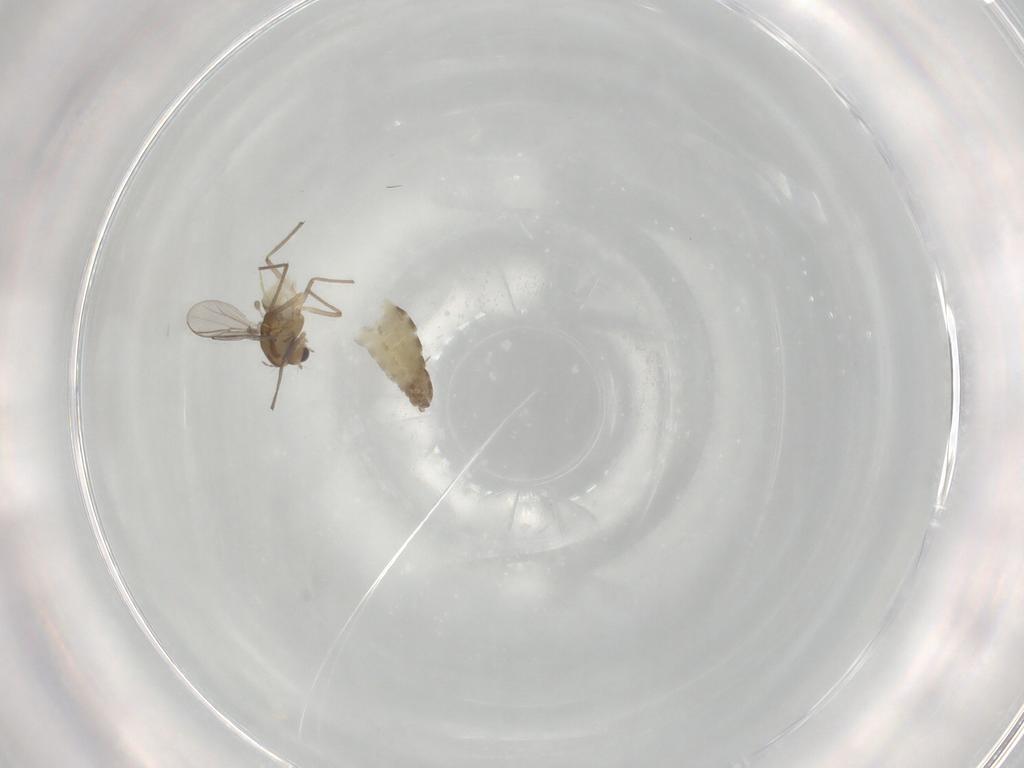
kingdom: Animalia
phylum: Arthropoda
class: Insecta
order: Diptera
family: Chironomidae
